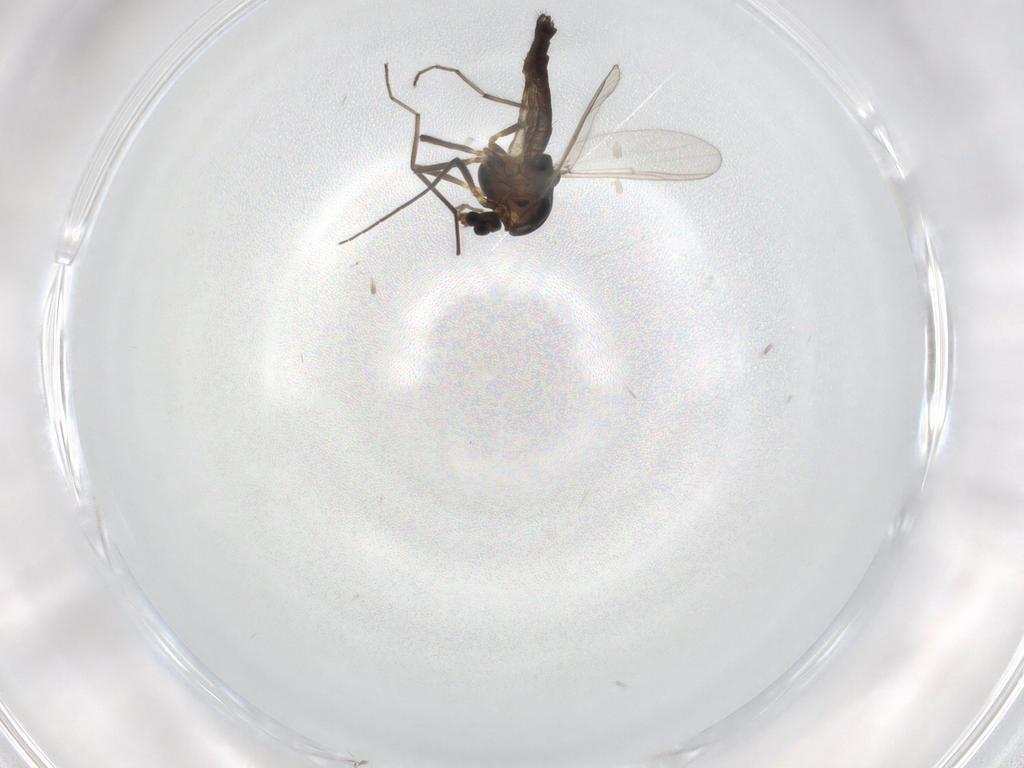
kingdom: Animalia
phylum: Arthropoda
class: Insecta
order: Diptera
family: Chironomidae
